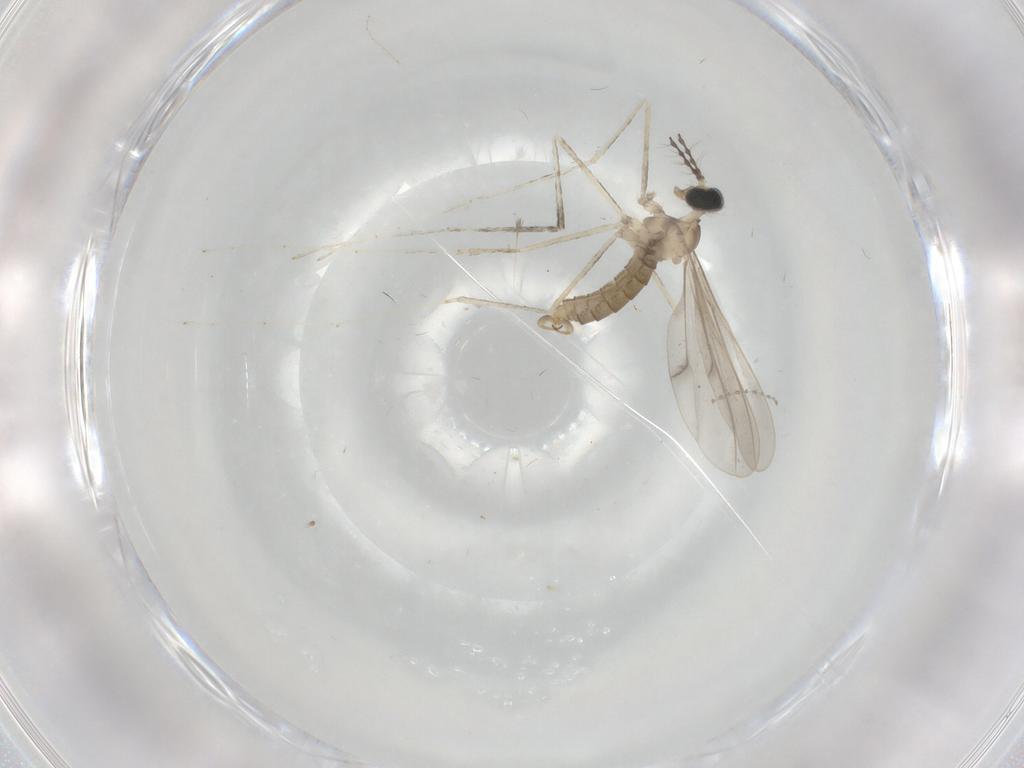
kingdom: Animalia
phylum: Arthropoda
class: Insecta
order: Diptera
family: Cecidomyiidae
